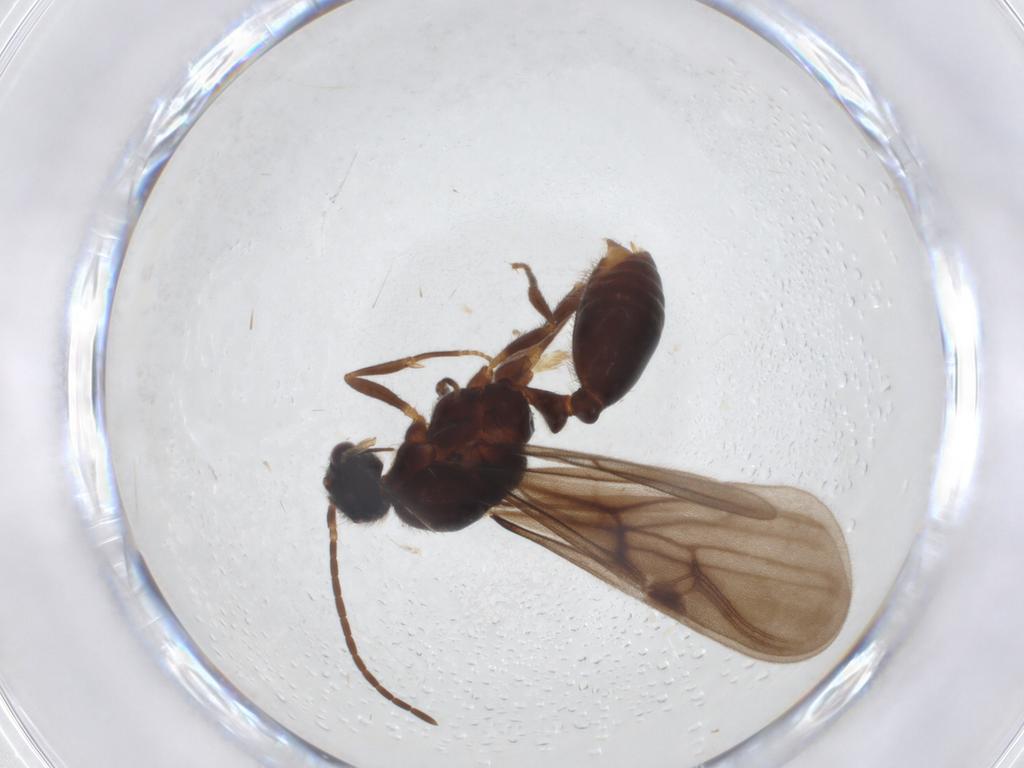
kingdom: Animalia
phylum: Arthropoda
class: Insecta
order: Hymenoptera
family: Formicidae
